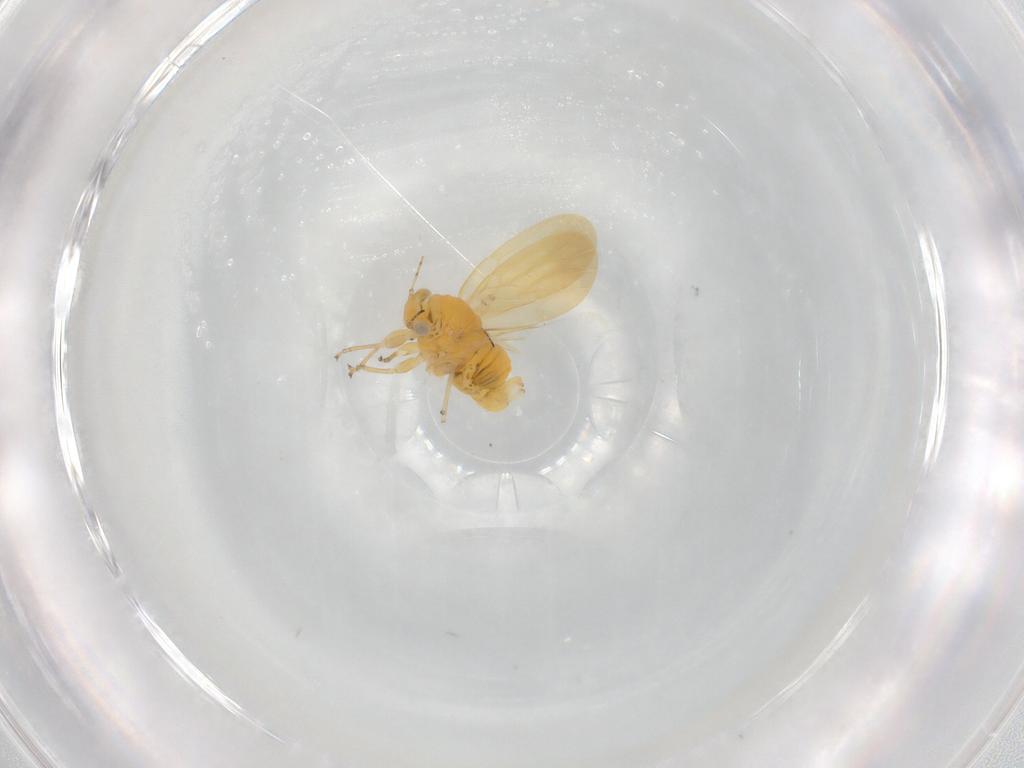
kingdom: Animalia
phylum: Arthropoda
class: Insecta
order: Hemiptera
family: Liviidae
